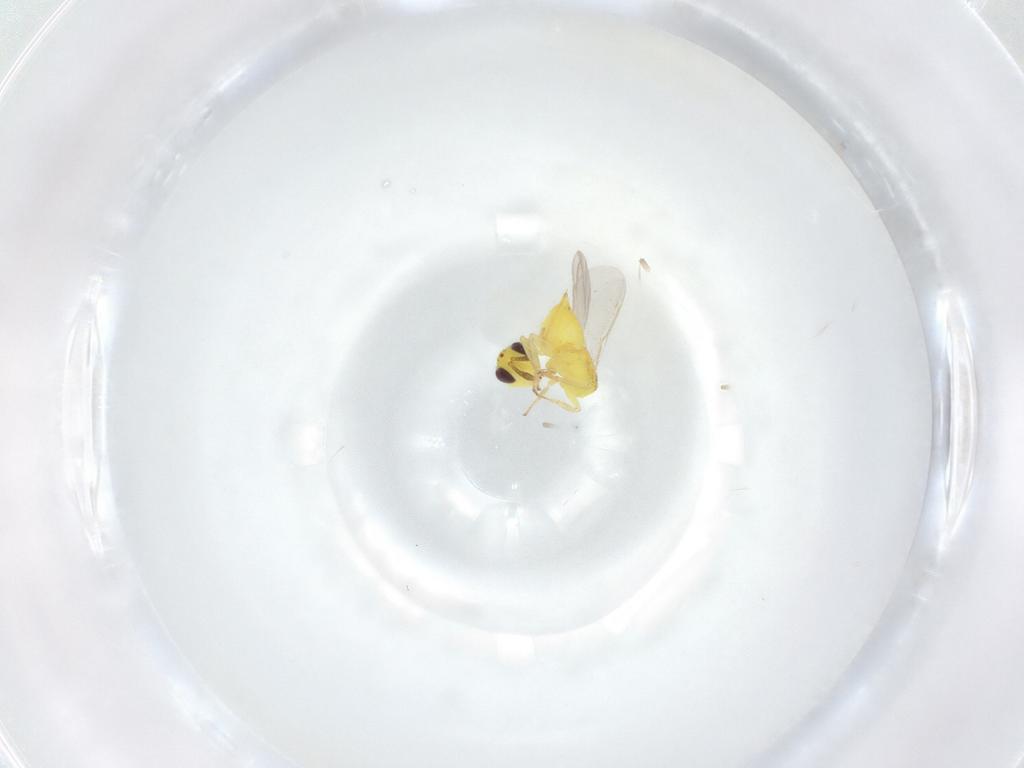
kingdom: Animalia
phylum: Arthropoda
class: Insecta
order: Hymenoptera
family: Aphelinidae
